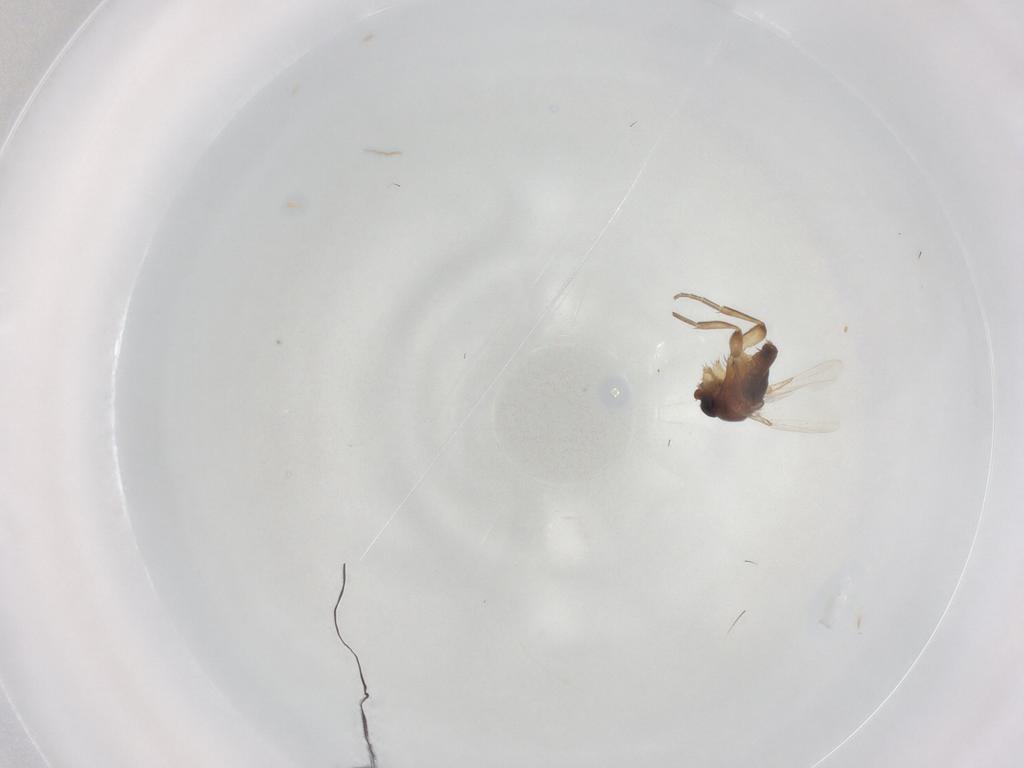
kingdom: Animalia
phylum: Arthropoda
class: Insecta
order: Diptera
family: Phoridae
